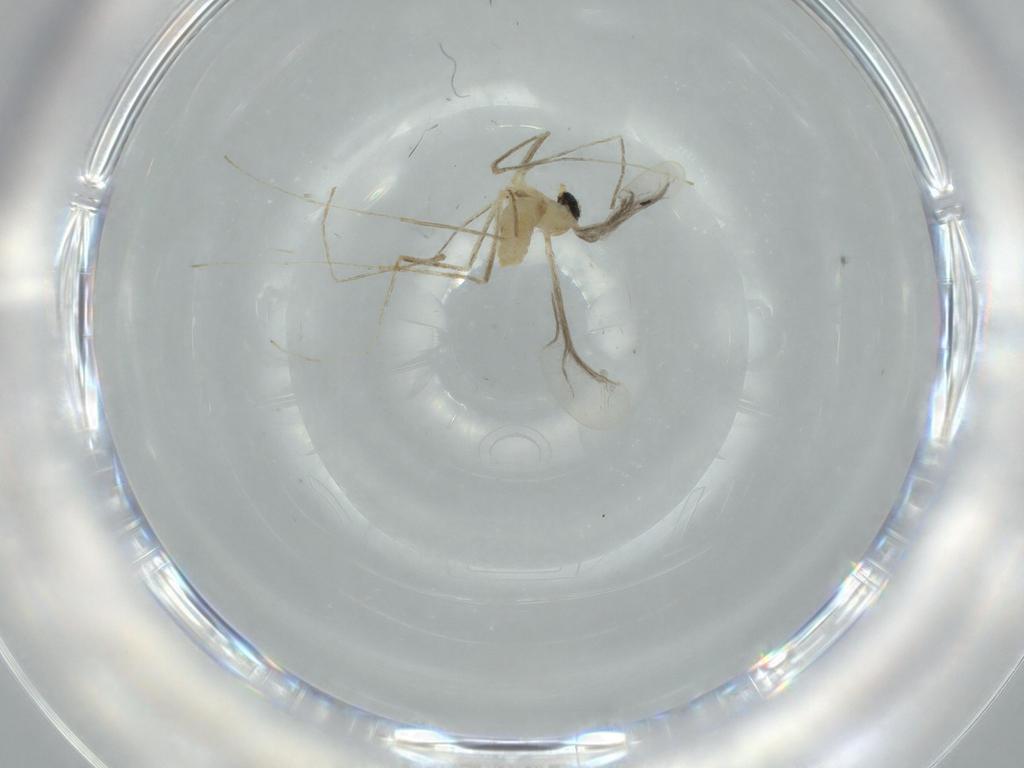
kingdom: Animalia
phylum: Arthropoda
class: Insecta
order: Diptera
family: Cecidomyiidae
